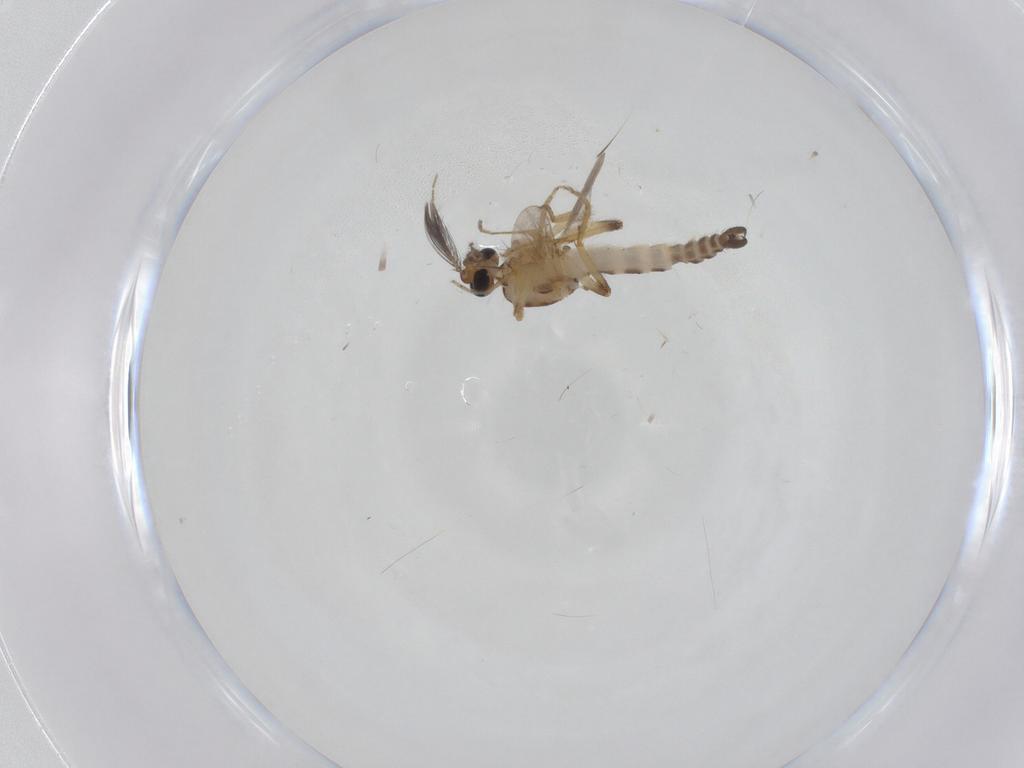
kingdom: Animalia
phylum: Arthropoda
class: Insecta
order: Diptera
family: Ceratopogonidae
